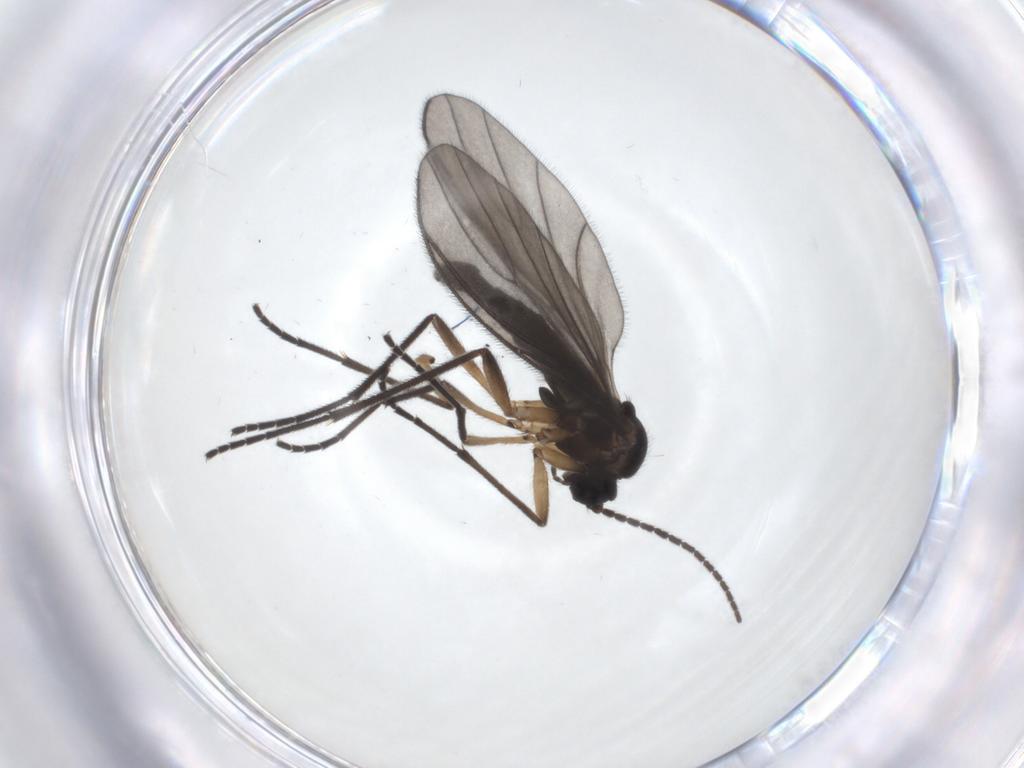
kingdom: Animalia
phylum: Arthropoda
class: Insecta
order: Diptera
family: Sciaridae
